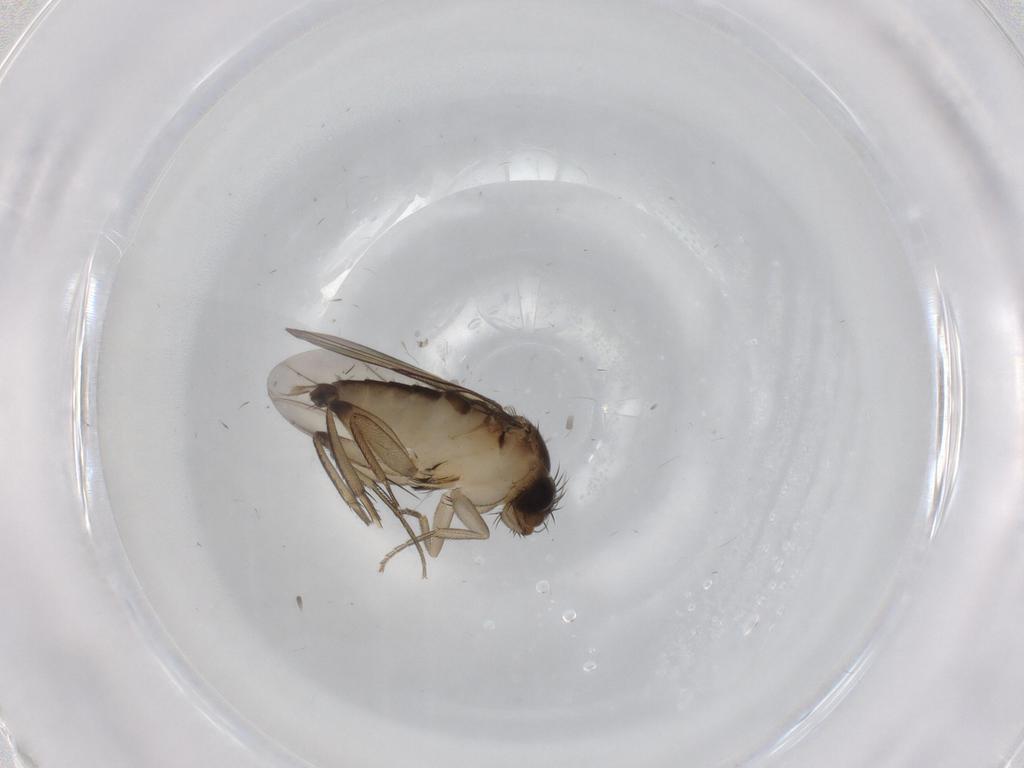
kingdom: Animalia
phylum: Arthropoda
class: Insecta
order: Diptera
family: Phoridae
